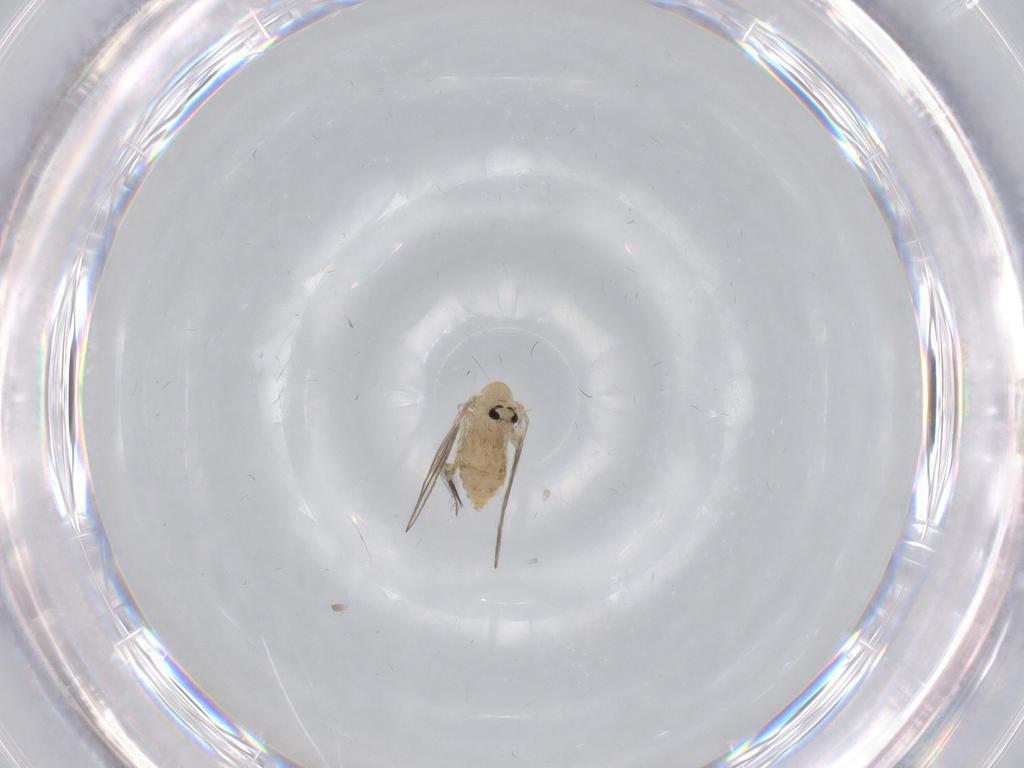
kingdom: Animalia
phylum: Arthropoda
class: Insecta
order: Diptera
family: Psychodidae
